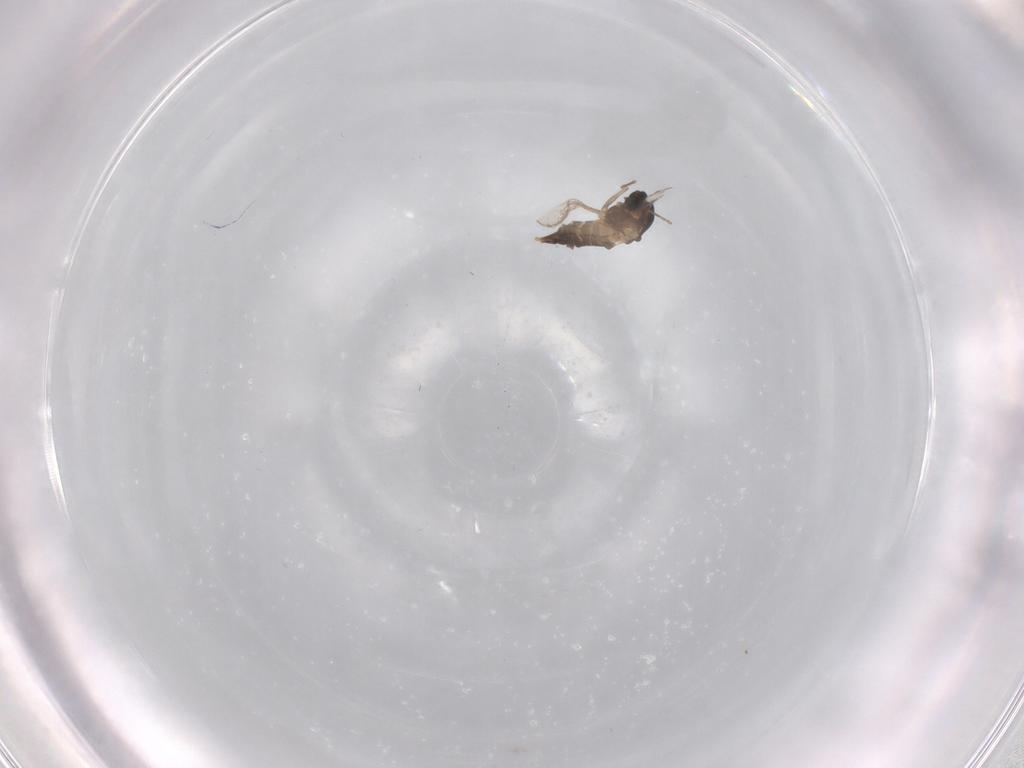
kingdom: Animalia
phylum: Arthropoda
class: Insecta
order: Diptera
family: Chironomidae
